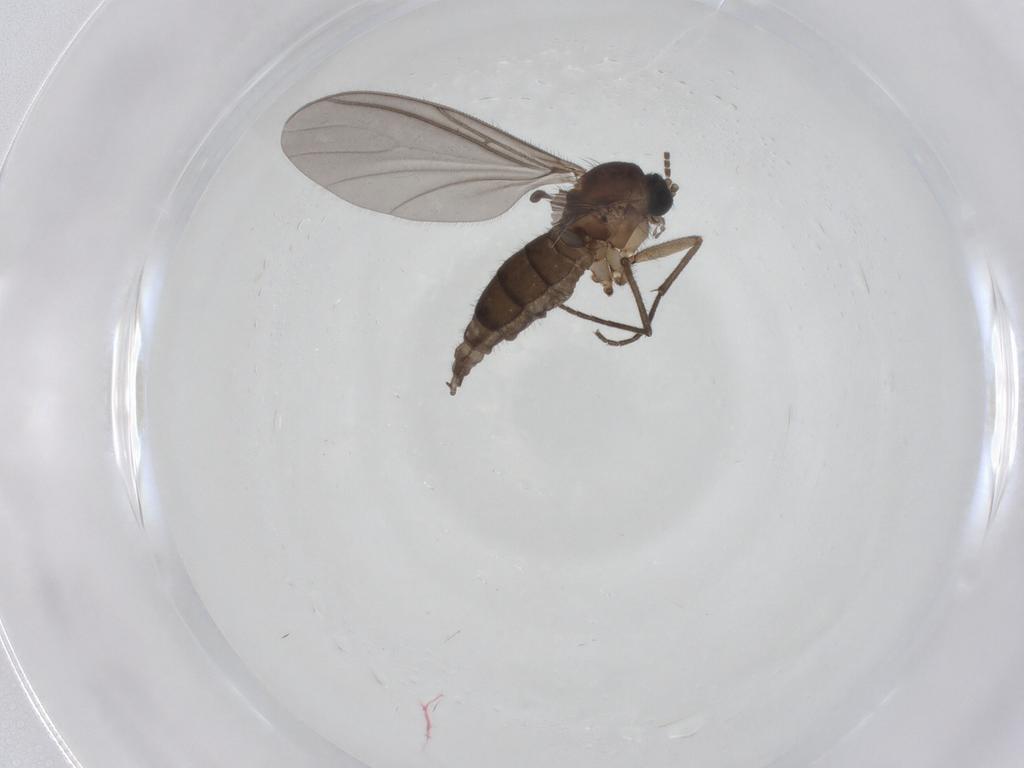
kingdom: Animalia
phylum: Arthropoda
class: Insecta
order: Diptera
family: Sciaridae
